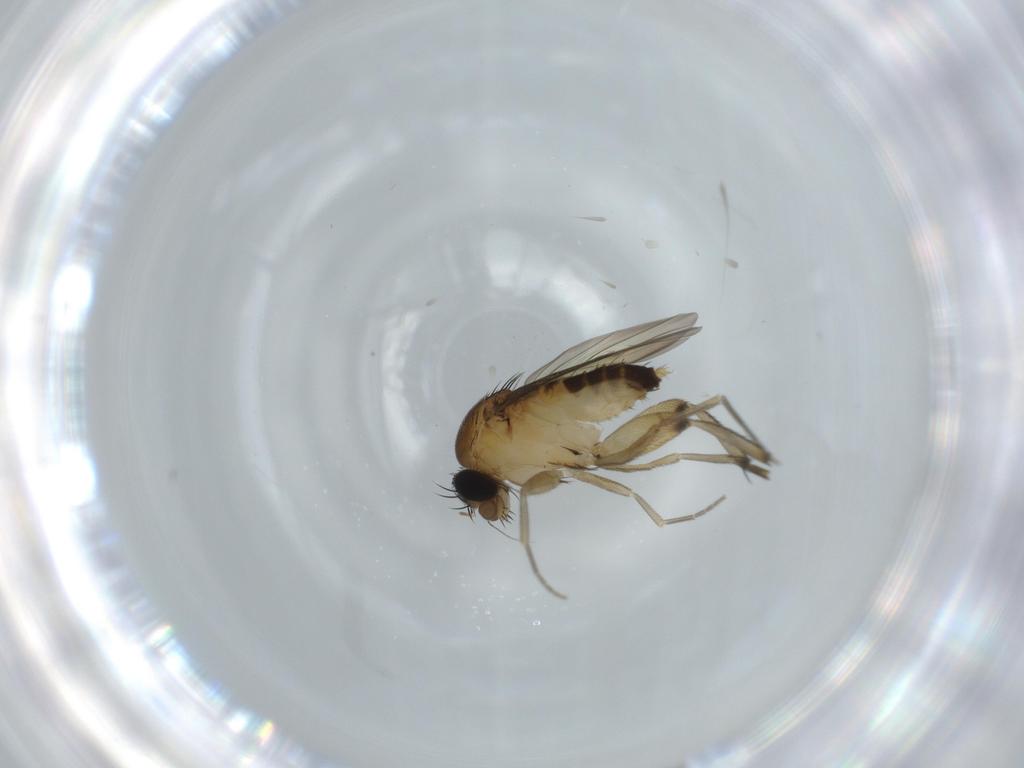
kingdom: Animalia
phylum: Arthropoda
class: Insecta
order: Diptera
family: Phoridae
